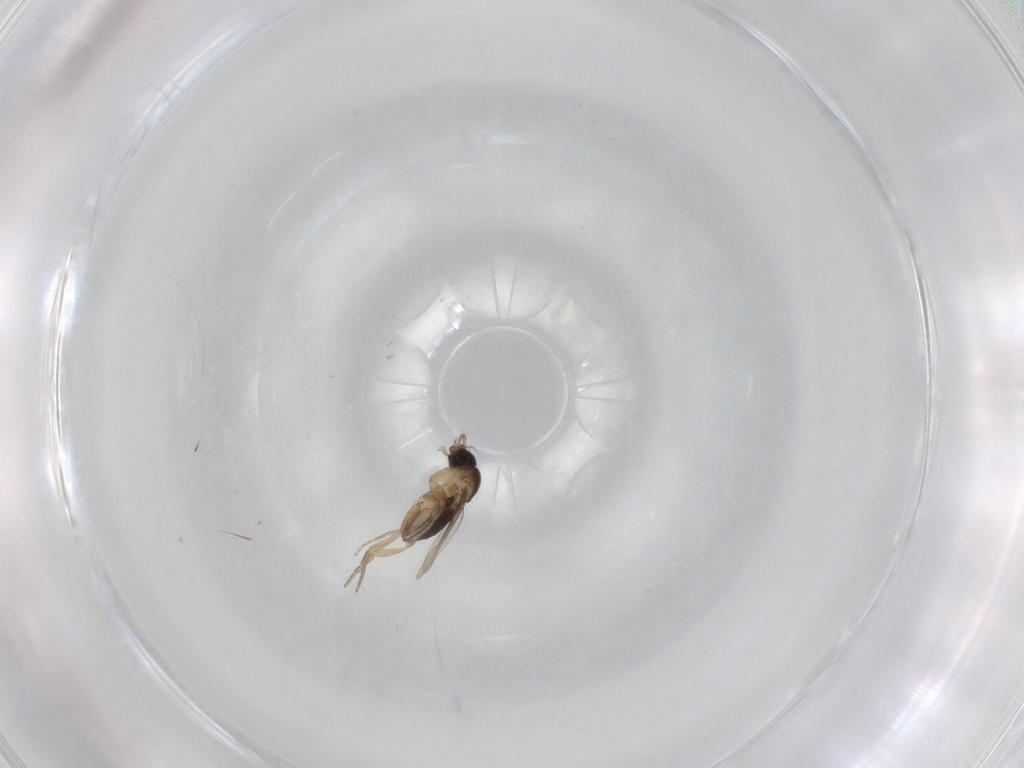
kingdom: Animalia
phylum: Arthropoda
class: Insecta
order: Diptera
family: Phoridae
